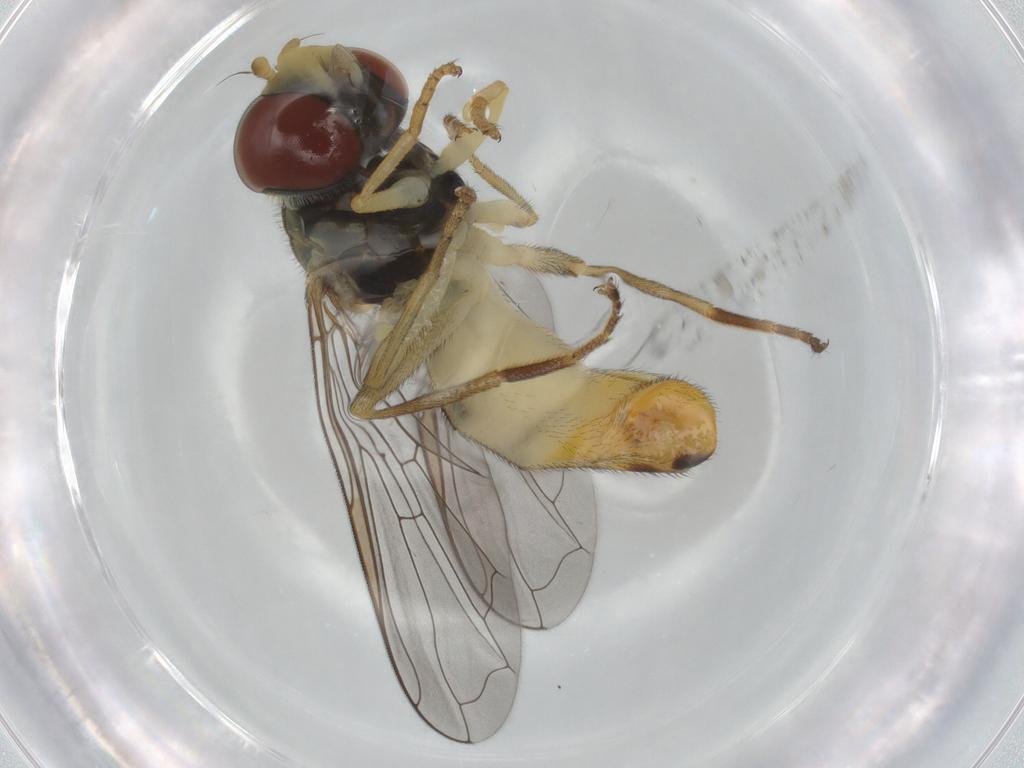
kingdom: Animalia
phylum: Arthropoda
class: Insecta
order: Diptera
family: Syrphidae
